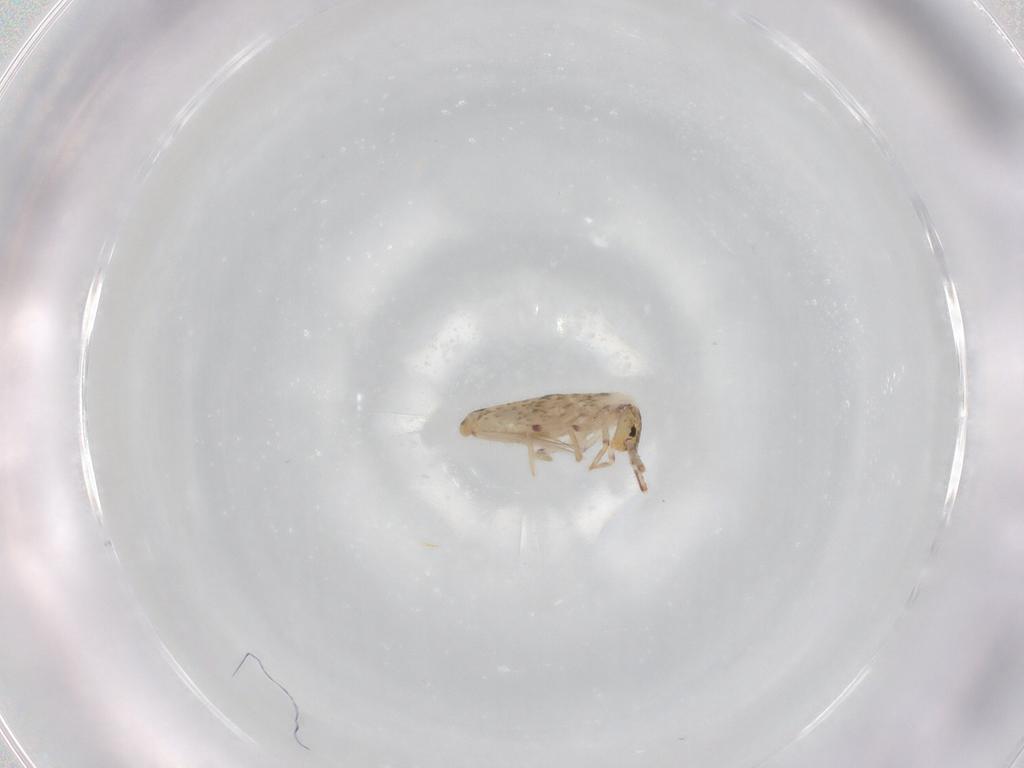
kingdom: Animalia
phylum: Arthropoda
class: Collembola
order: Entomobryomorpha
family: Entomobryidae
